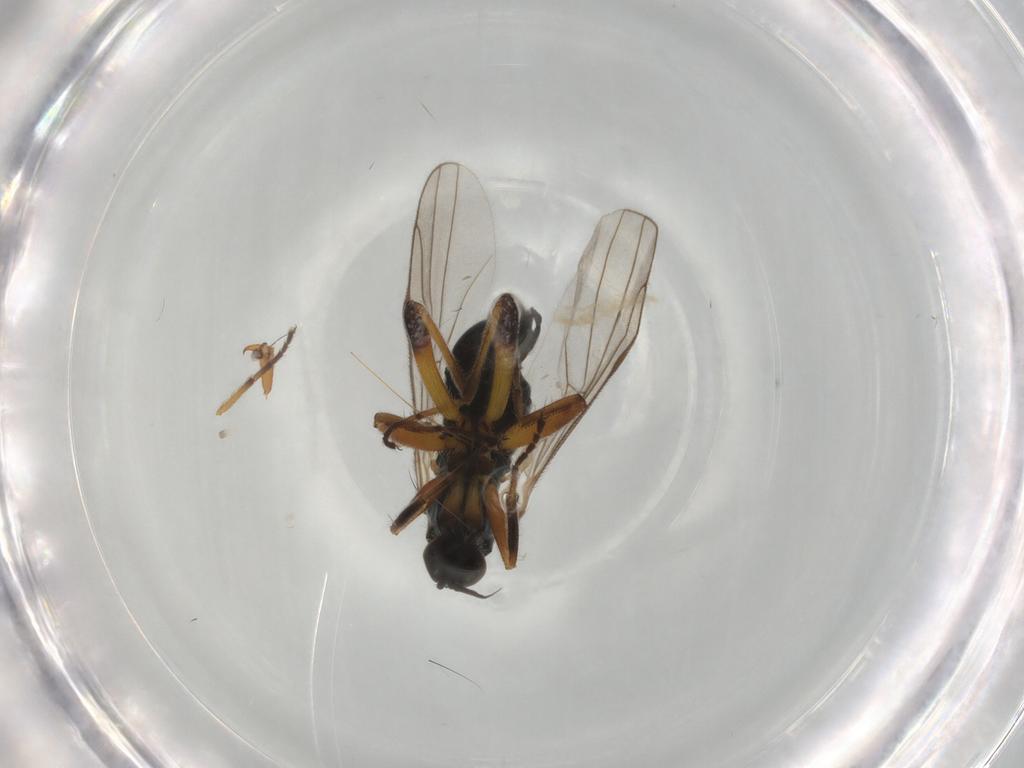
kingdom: Animalia
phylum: Arthropoda
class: Insecta
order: Diptera
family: Hybotidae
